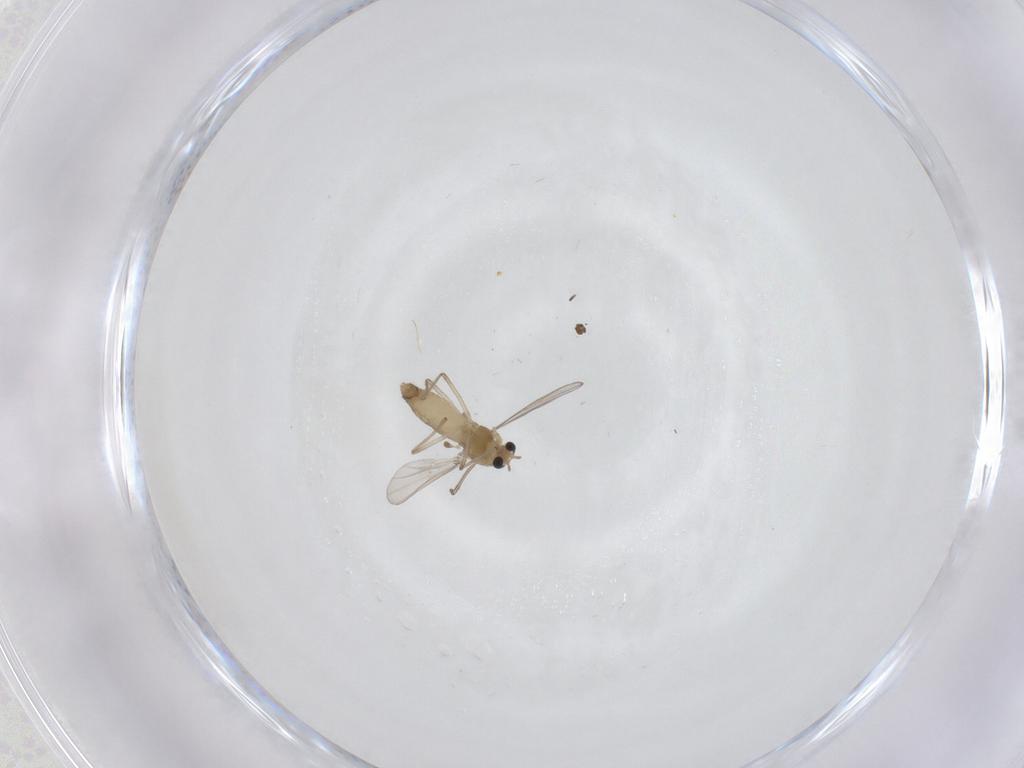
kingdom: Animalia
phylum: Arthropoda
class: Insecta
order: Diptera
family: Chironomidae
